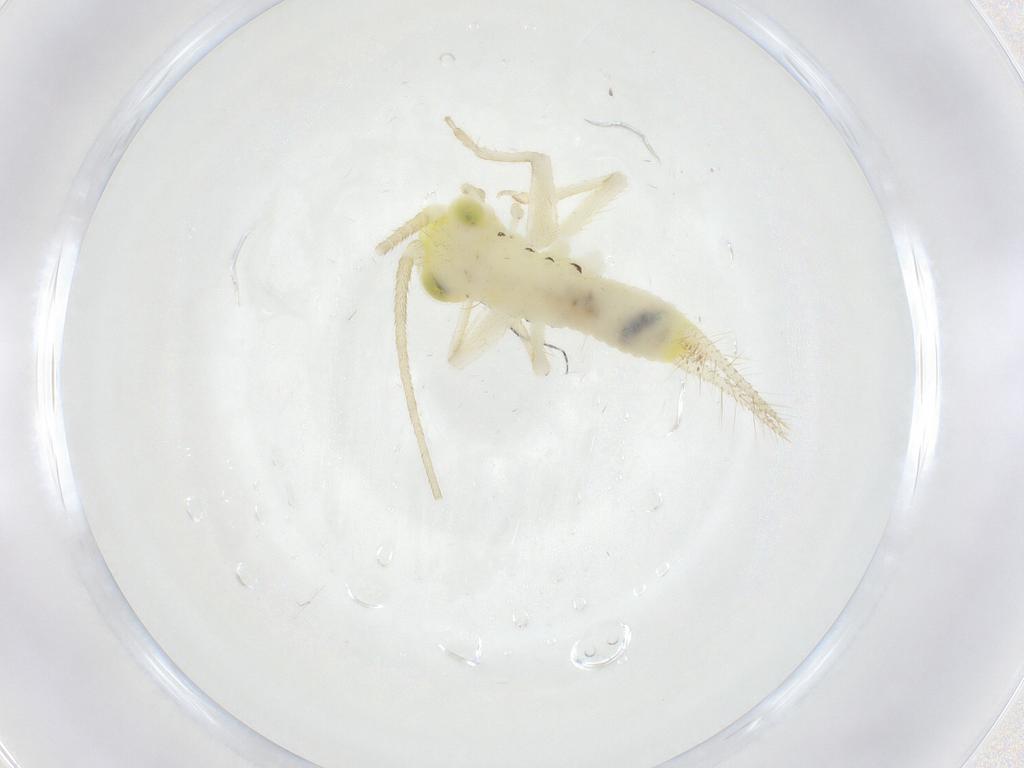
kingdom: Animalia
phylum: Arthropoda
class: Insecta
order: Orthoptera
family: Trigonidiidae
